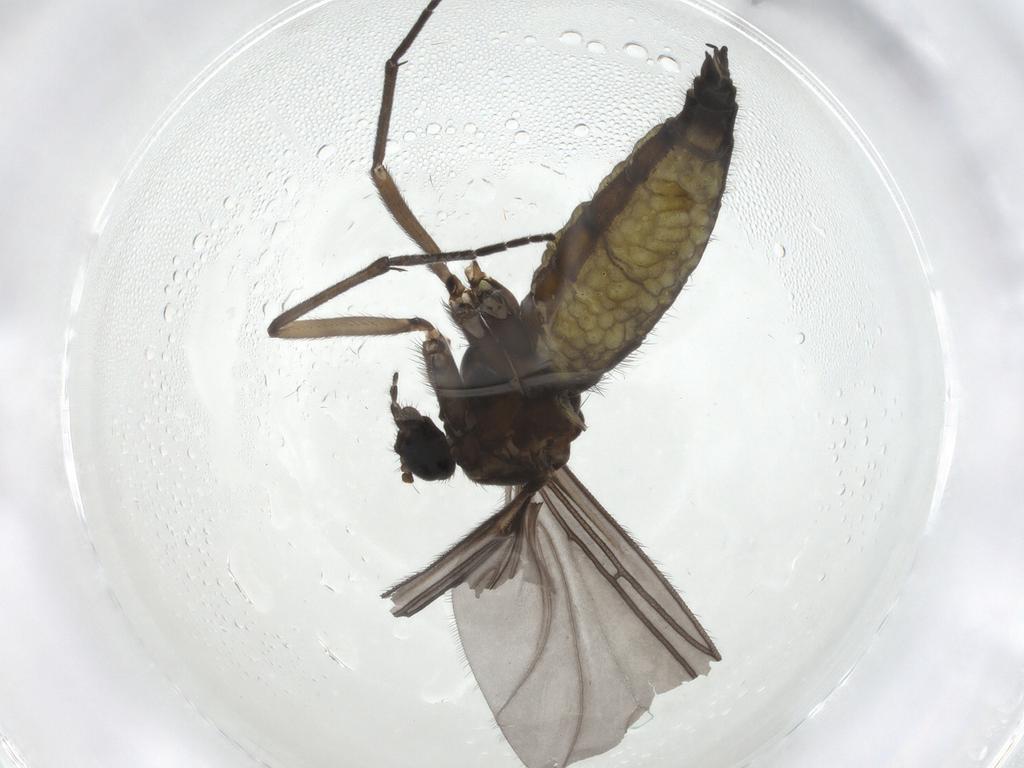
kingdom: Animalia
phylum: Arthropoda
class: Insecta
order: Diptera
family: Sciaridae
